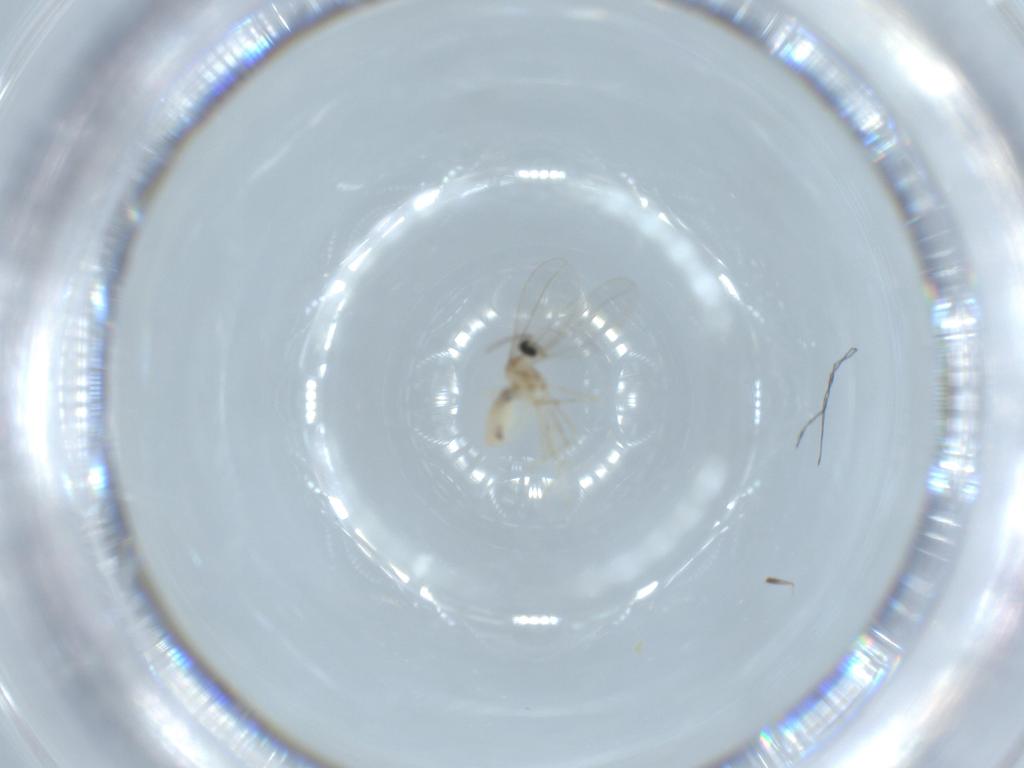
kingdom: Animalia
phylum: Arthropoda
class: Insecta
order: Diptera
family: Cecidomyiidae
